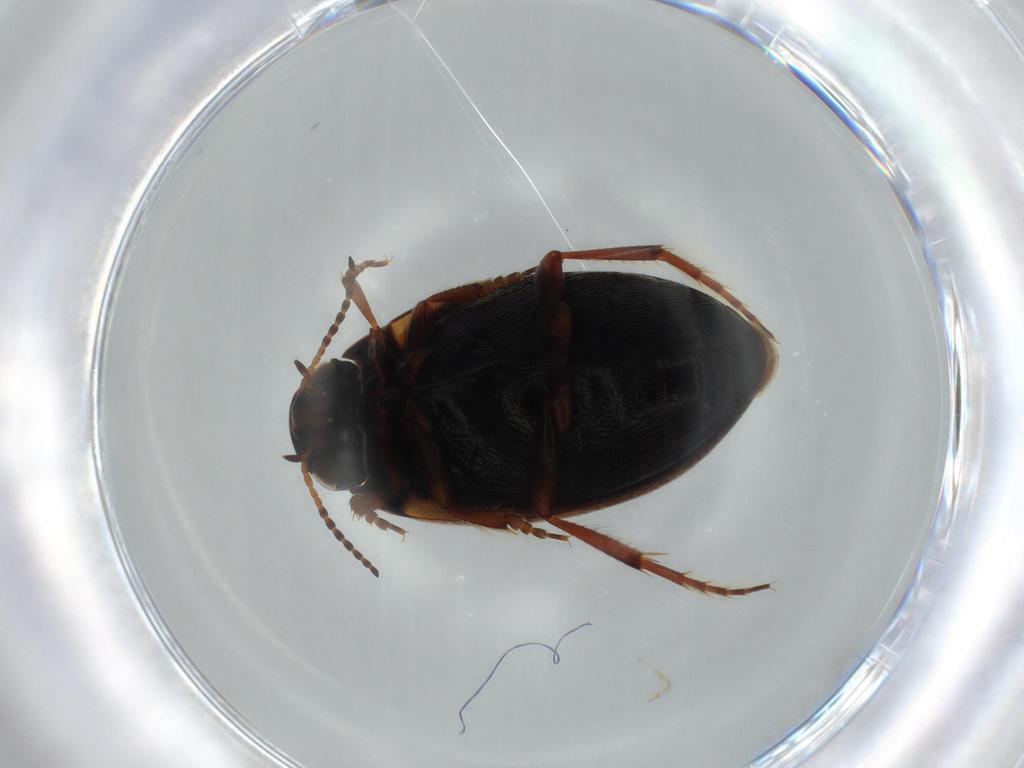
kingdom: Animalia
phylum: Arthropoda
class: Insecta
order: Coleoptera
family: Dytiscidae
